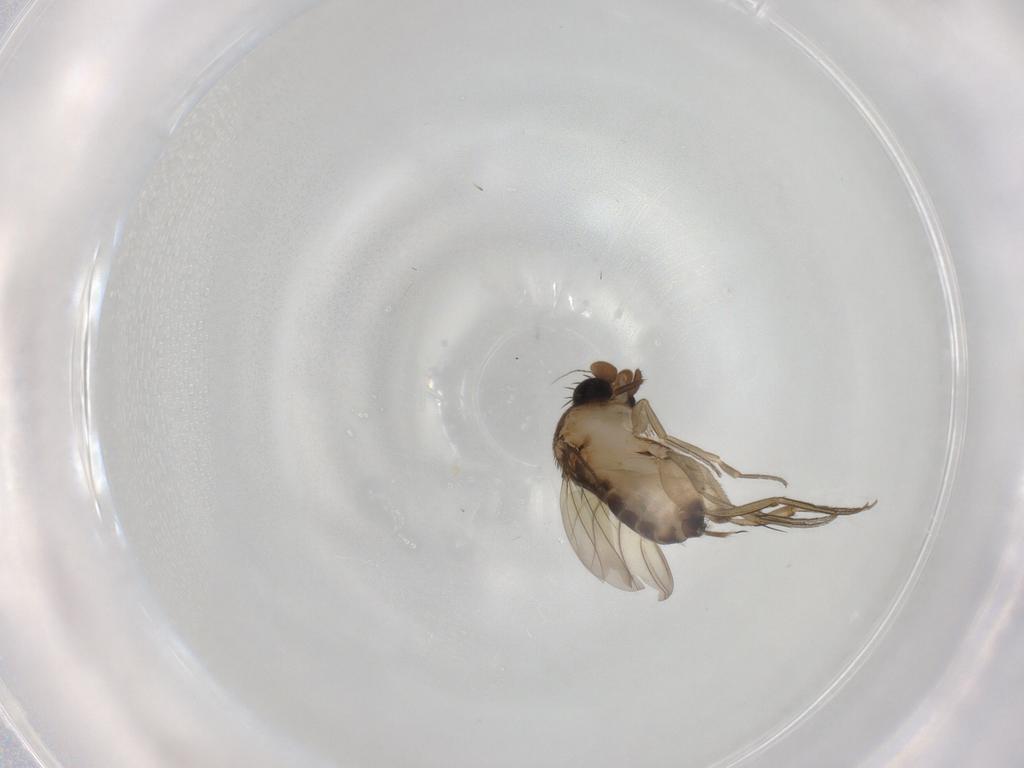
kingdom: Animalia
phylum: Arthropoda
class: Insecta
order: Diptera
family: Phoridae
